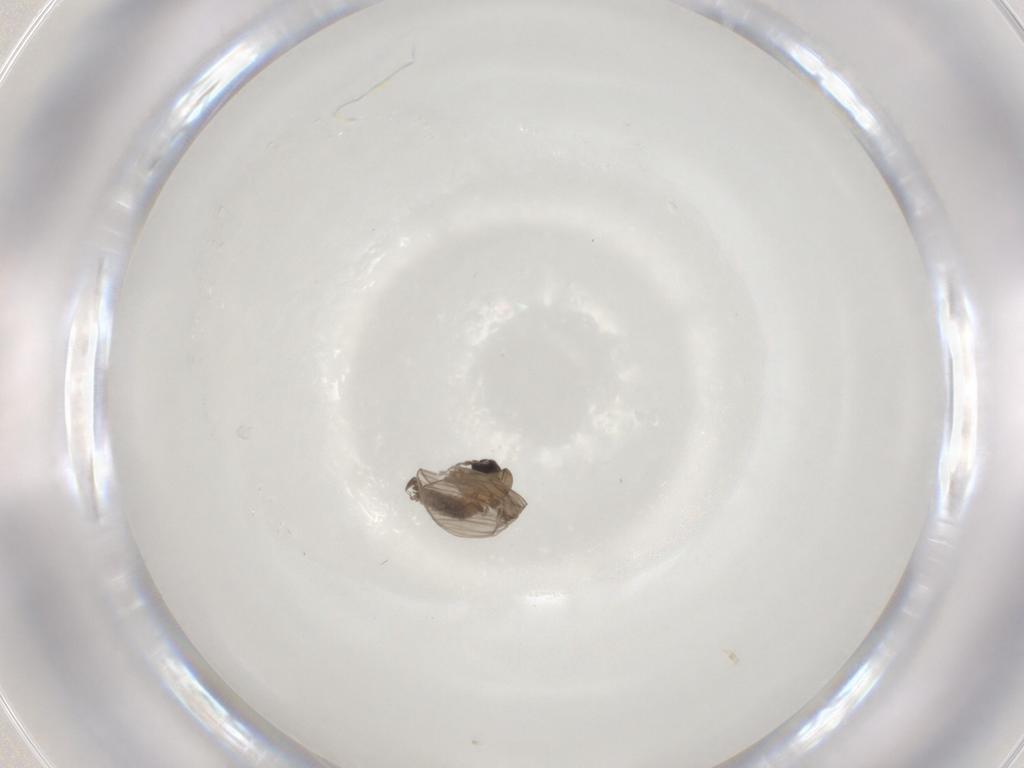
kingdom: Animalia
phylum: Arthropoda
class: Insecta
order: Diptera
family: Psychodidae
